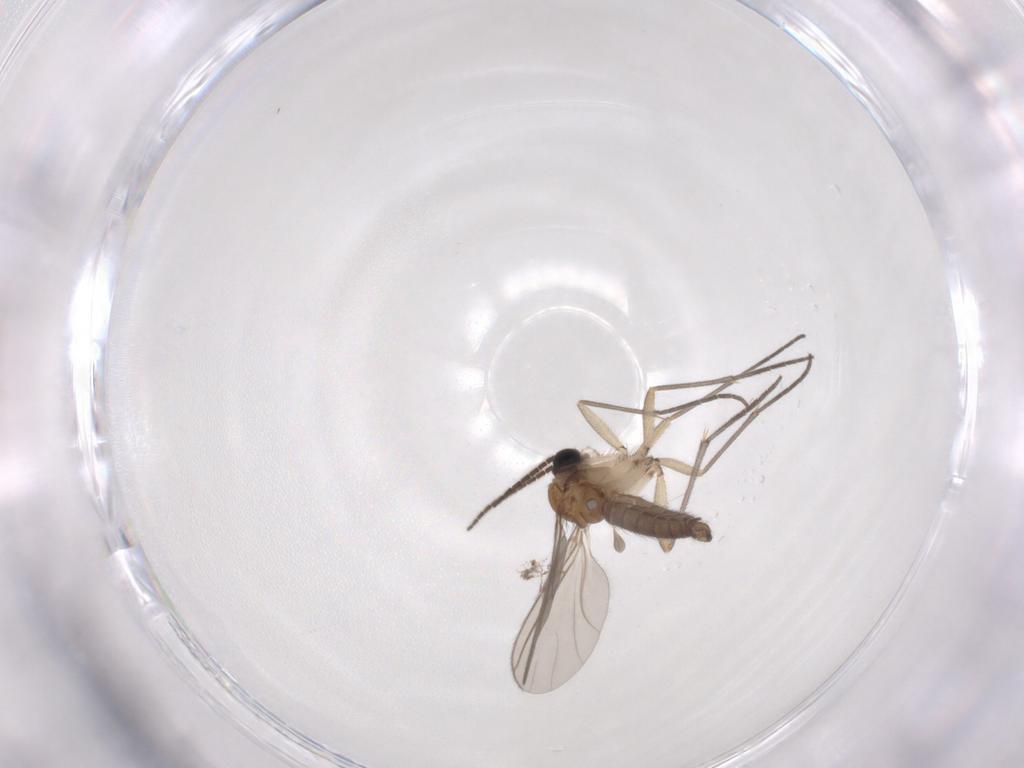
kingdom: Animalia
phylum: Arthropoda
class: Insecta
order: Diptera
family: Sciaridae
